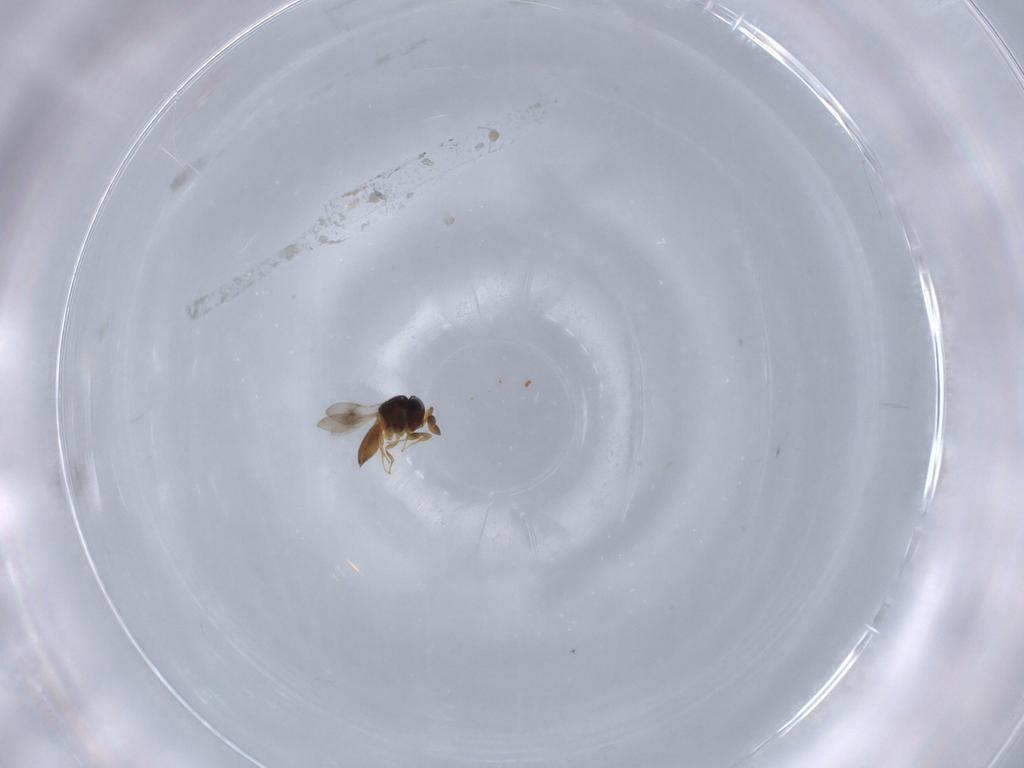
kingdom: Animalia
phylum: Arthropoda
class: Insecta
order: Hymenoptera
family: Scelionidae
